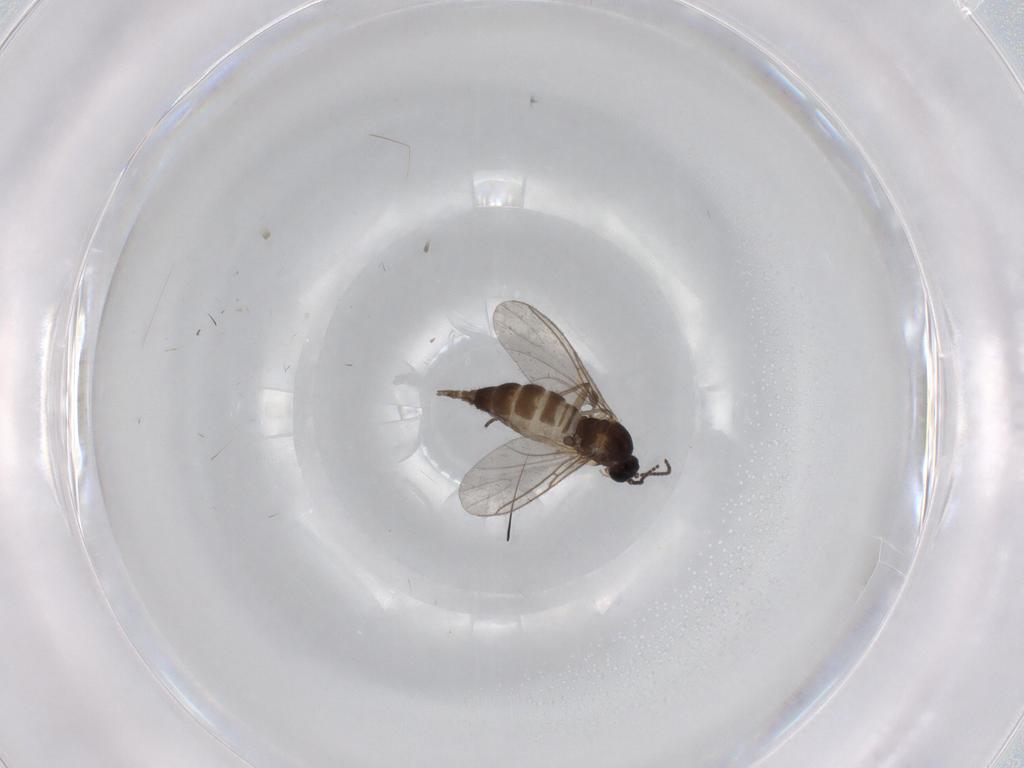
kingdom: Animalia
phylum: Arthropoda
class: Insecta
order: Diptera
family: Sciaridae
